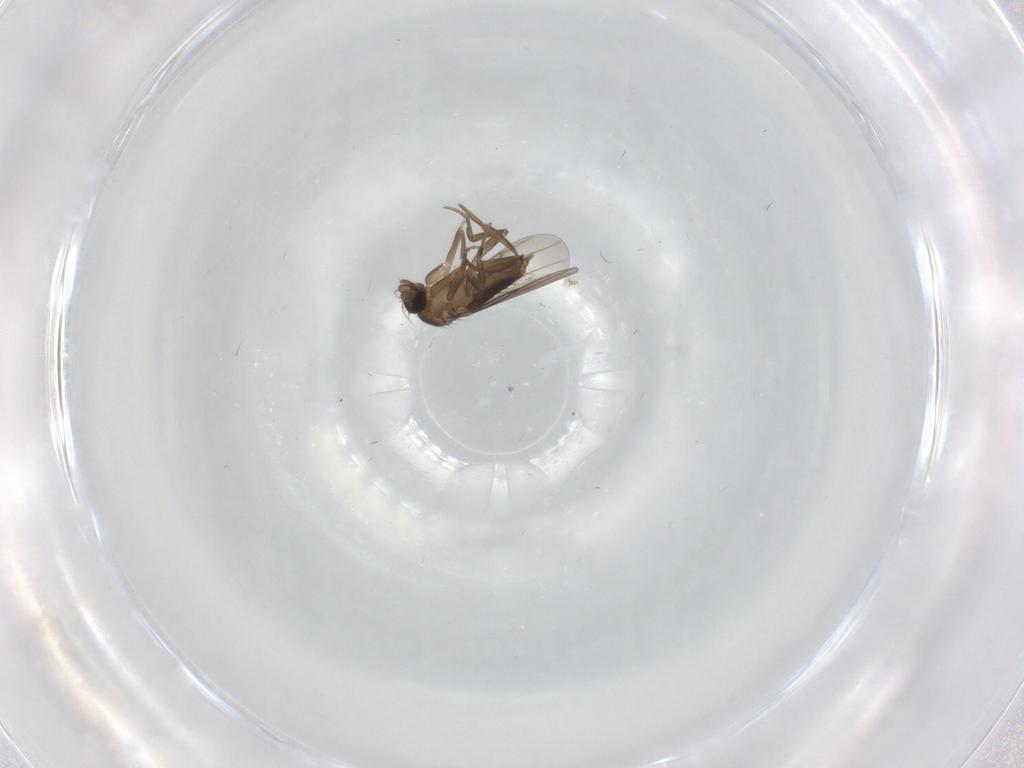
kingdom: Animalia
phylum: Arthropoda
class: Insecta
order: Diptera
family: Phoridae
